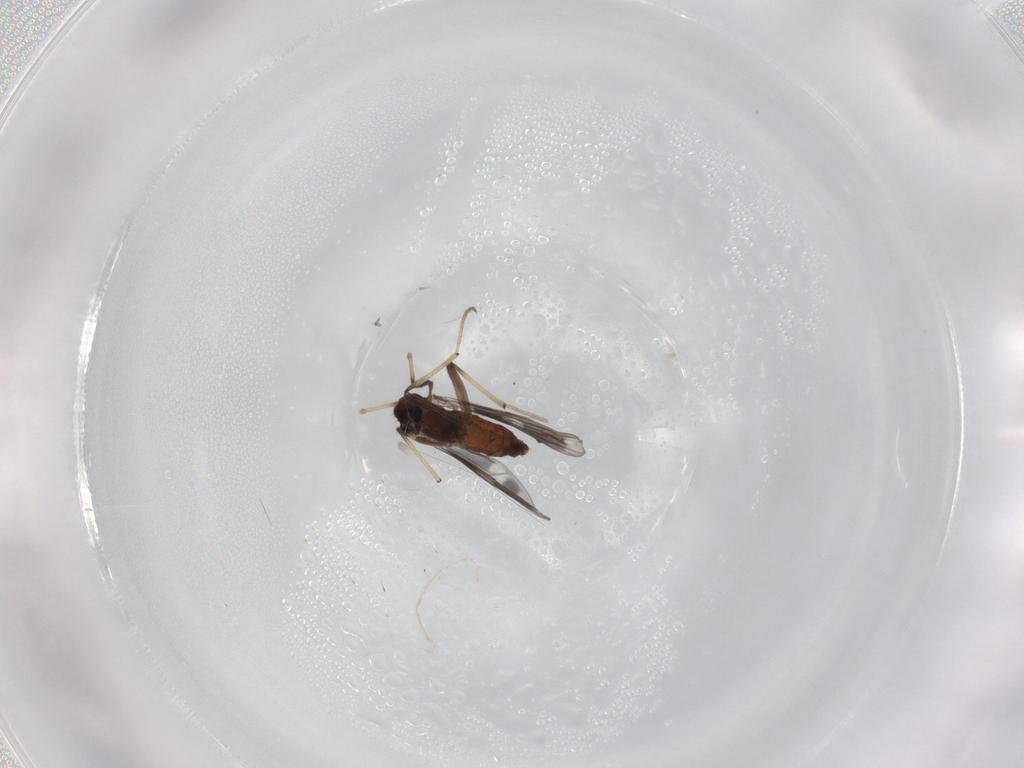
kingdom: Animalia
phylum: Arthropoda
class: Insecta
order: Diptera
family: Chironomidae
